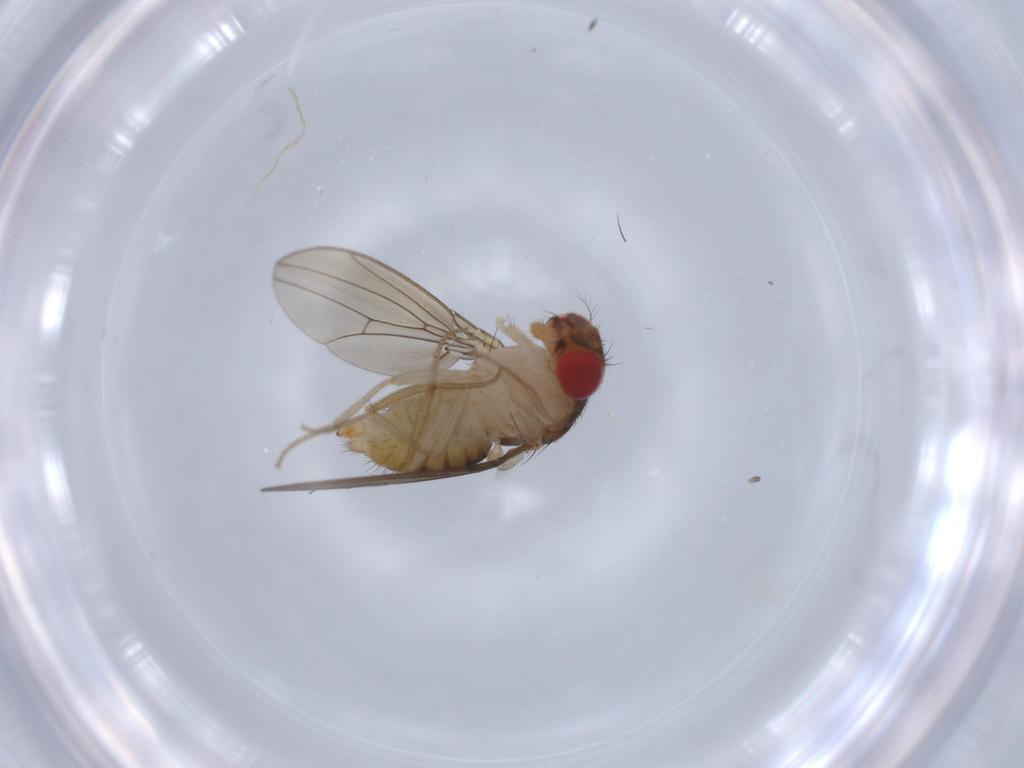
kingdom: Animalia
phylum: Arthropoda
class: Insecta
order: Diptera
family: Drosophilidae
